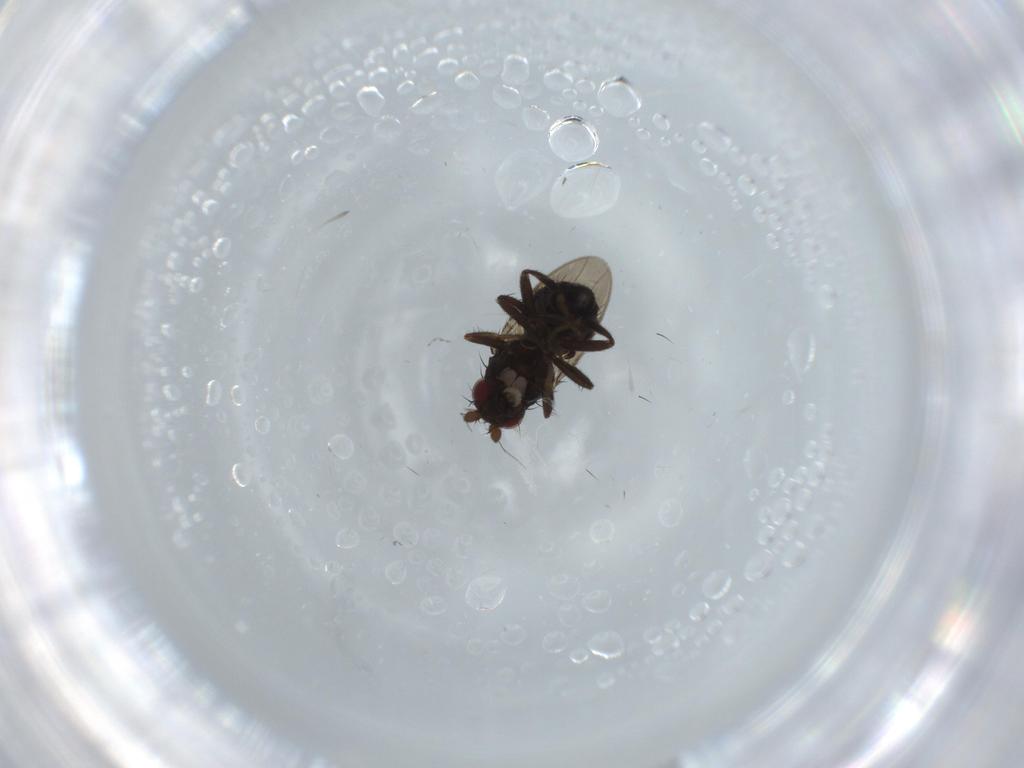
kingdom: Animalia
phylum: Arthropoda
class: Insecta
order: Diptera
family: Sphaeroceridae
